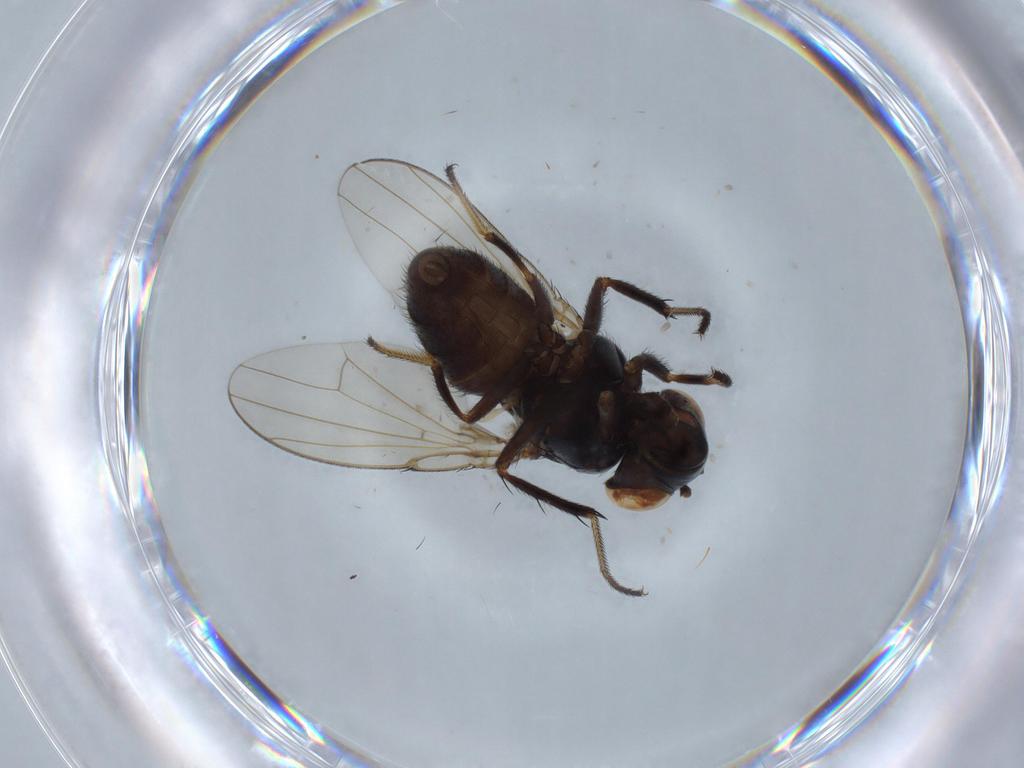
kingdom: Animalia
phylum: Arthropoda
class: Insecta
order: Diptera
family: Ephydridae
